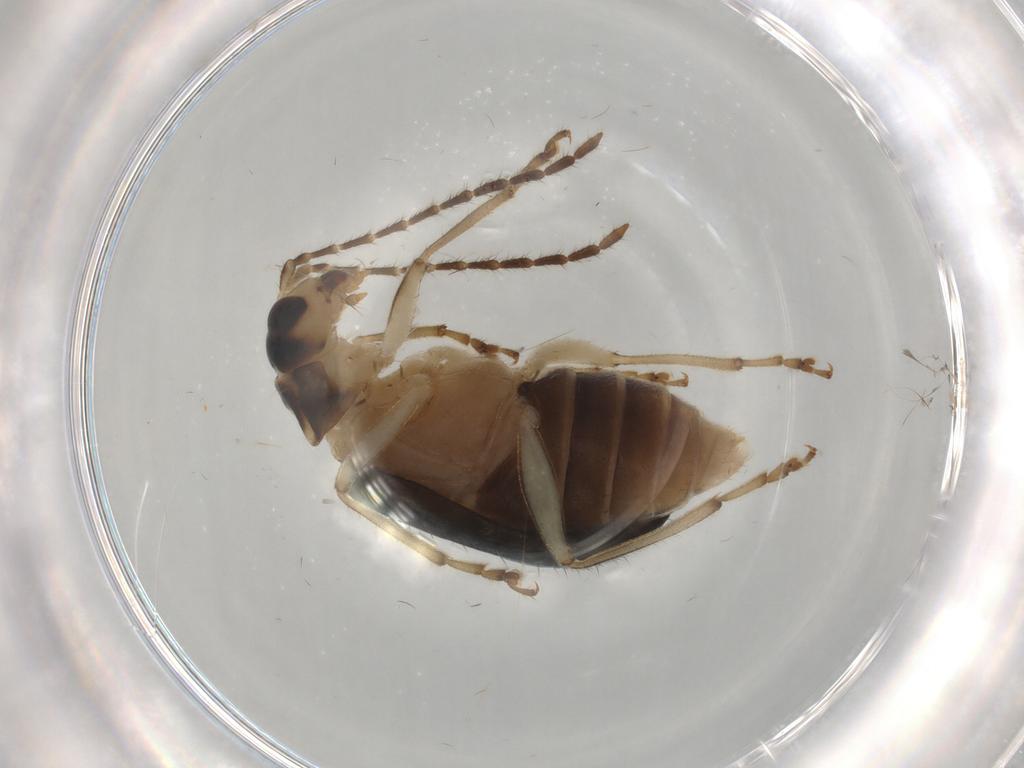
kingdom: Animalia
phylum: Arthropoda
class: Insecta
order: Coleoptera
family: Chrysomelidae
